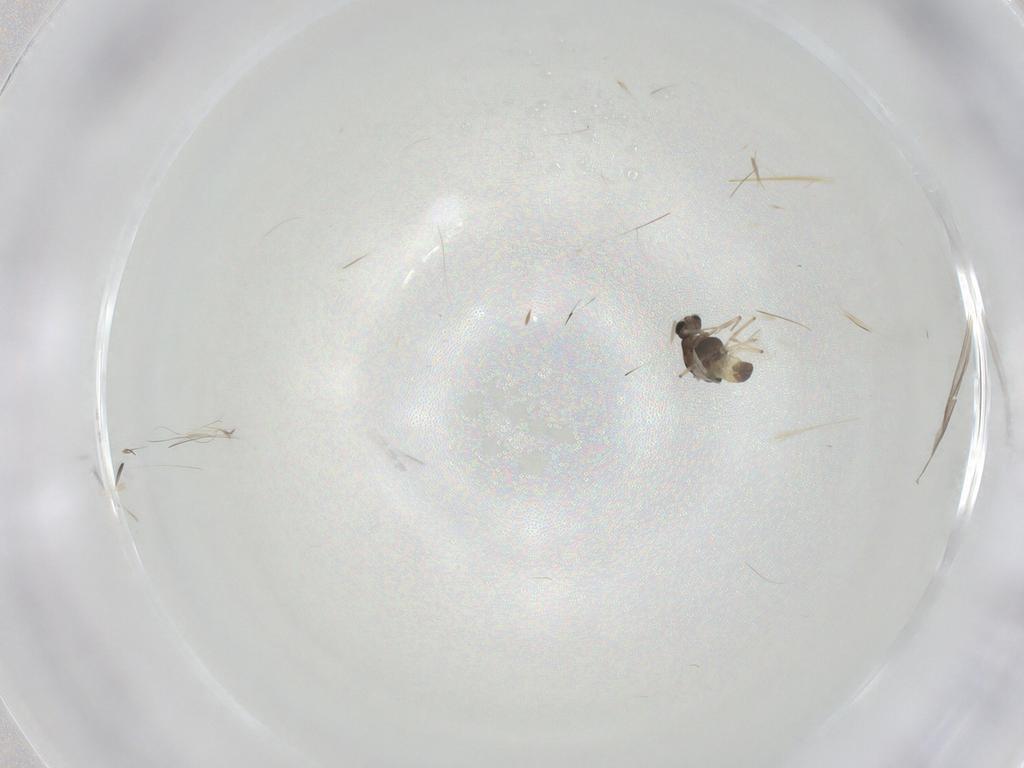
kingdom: Animalia
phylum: Arthropoda
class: Insecta
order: Diptera
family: Chironomidae
